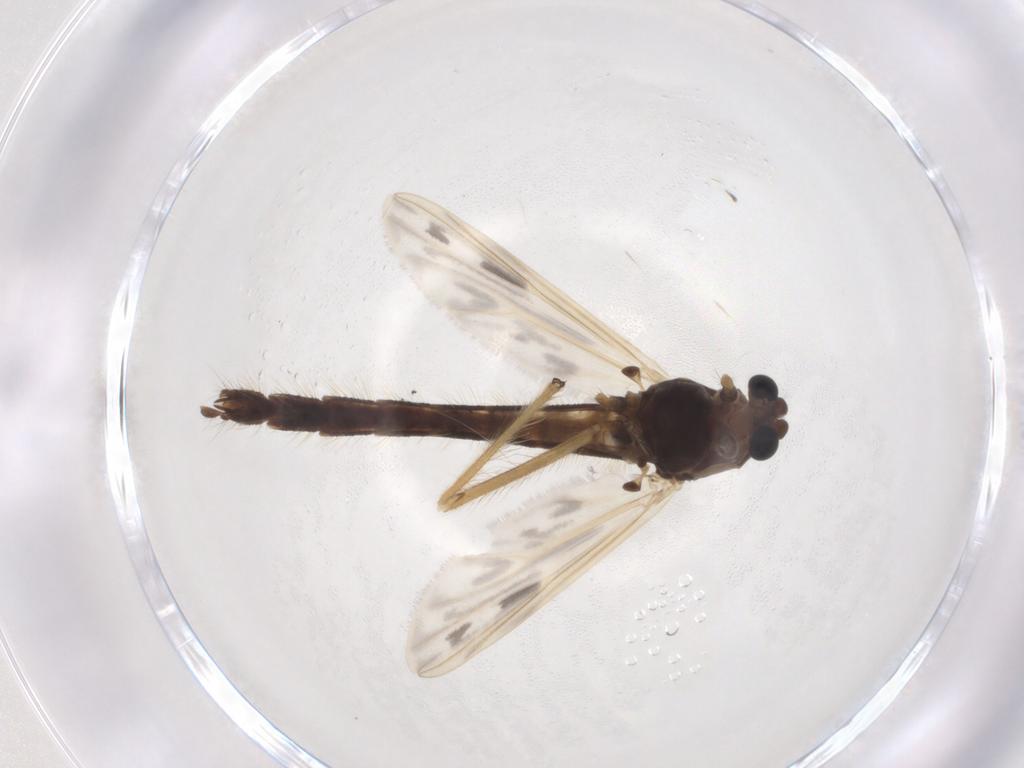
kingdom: Animalia
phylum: Arthropoda
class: Insecta
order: Diptera
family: Chironomidae
